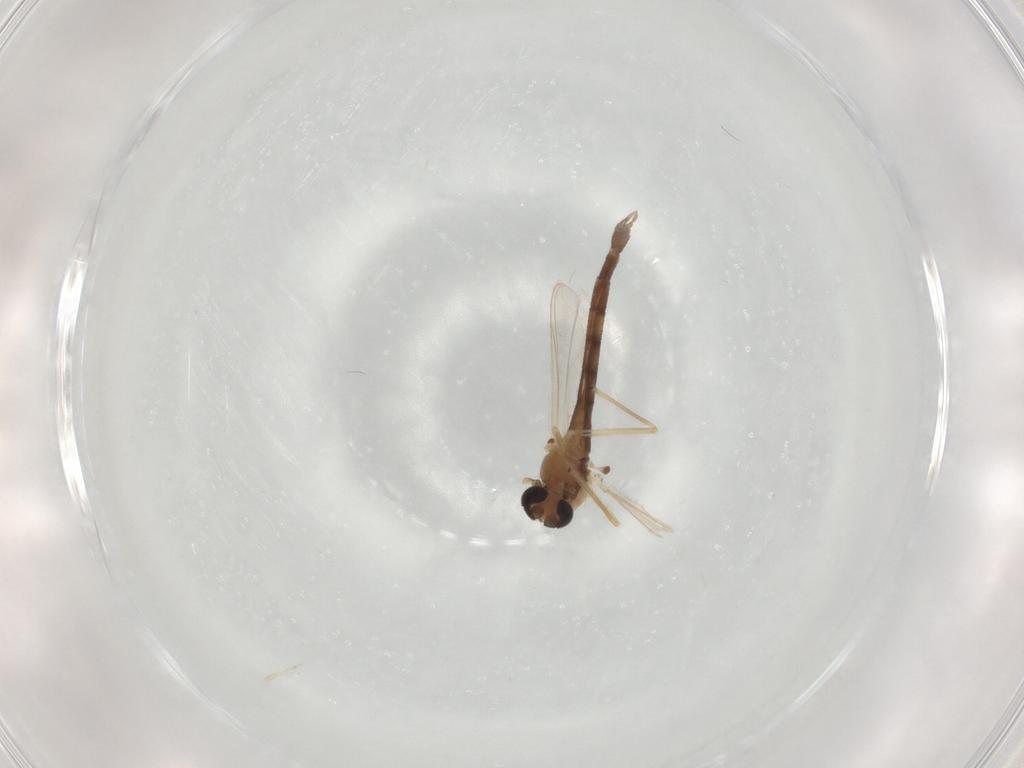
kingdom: Animalia
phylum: Arthropoda
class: Insecta
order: Diptera
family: Chironomidae
